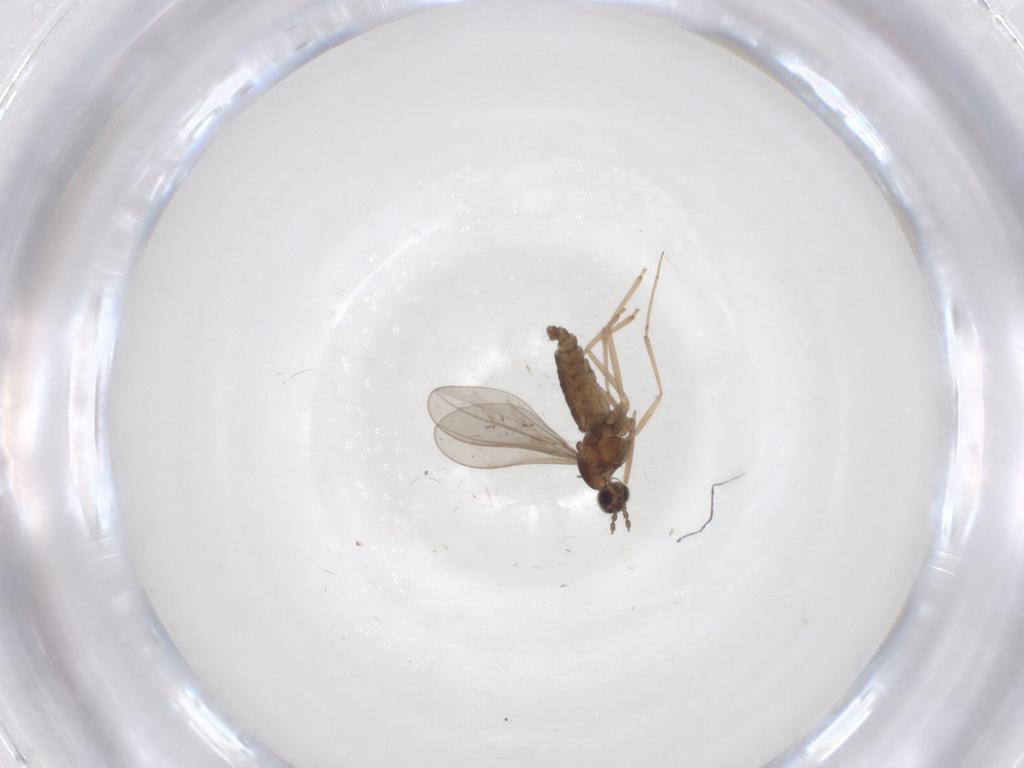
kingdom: Animalia
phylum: Arthropoda
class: Insecta
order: Diptera
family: Cecidomyiidae
